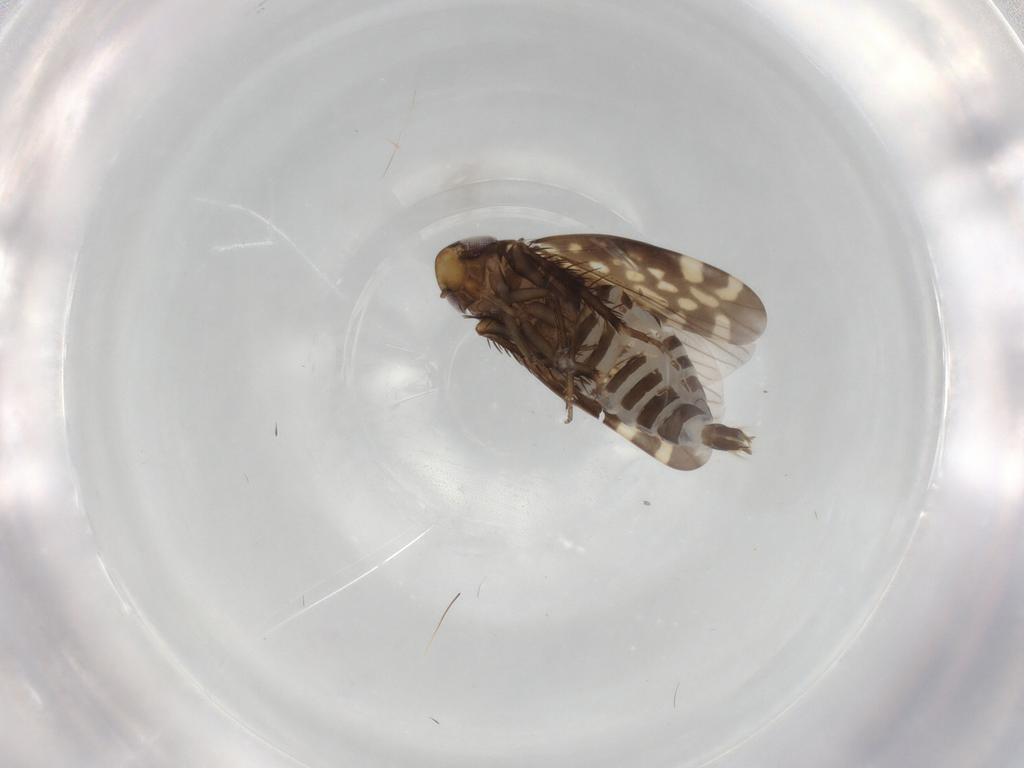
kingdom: Animalia
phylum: Arthropoda
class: Insecta
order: Hemiptera
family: Cicadellidae
